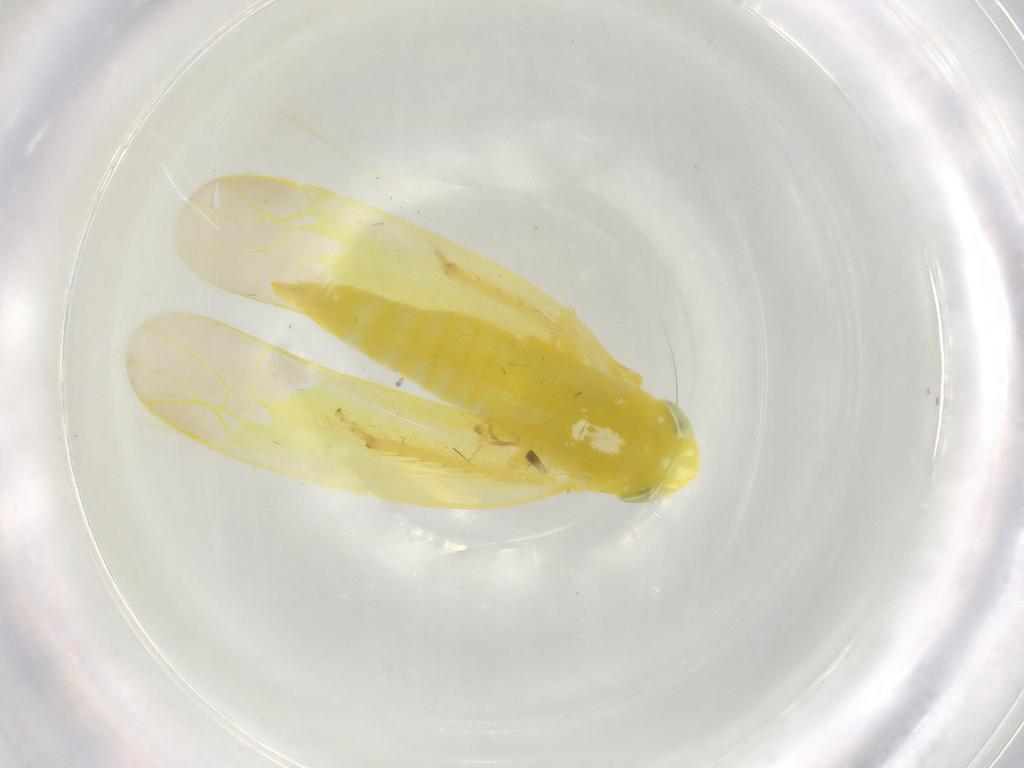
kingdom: Animalia
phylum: Arthropoda
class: Insecta
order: Hemiptera
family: Cicadellidae
